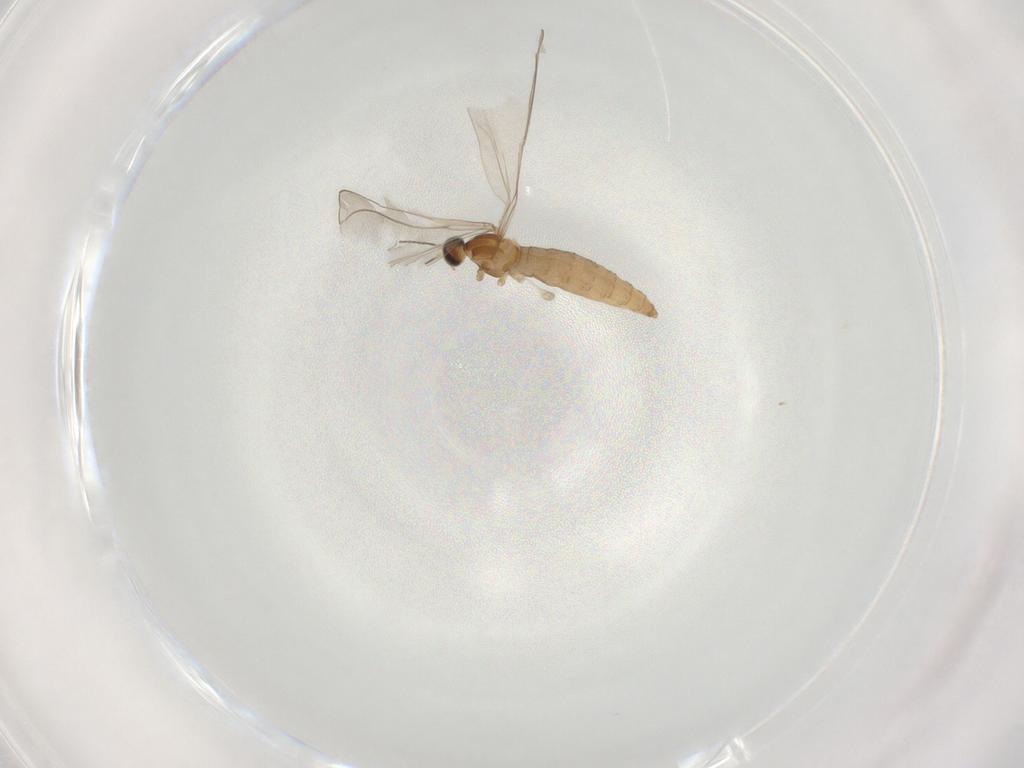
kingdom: Animalia
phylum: Arthropoda
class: Insecta
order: Diptera
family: Cecidomyiidae
